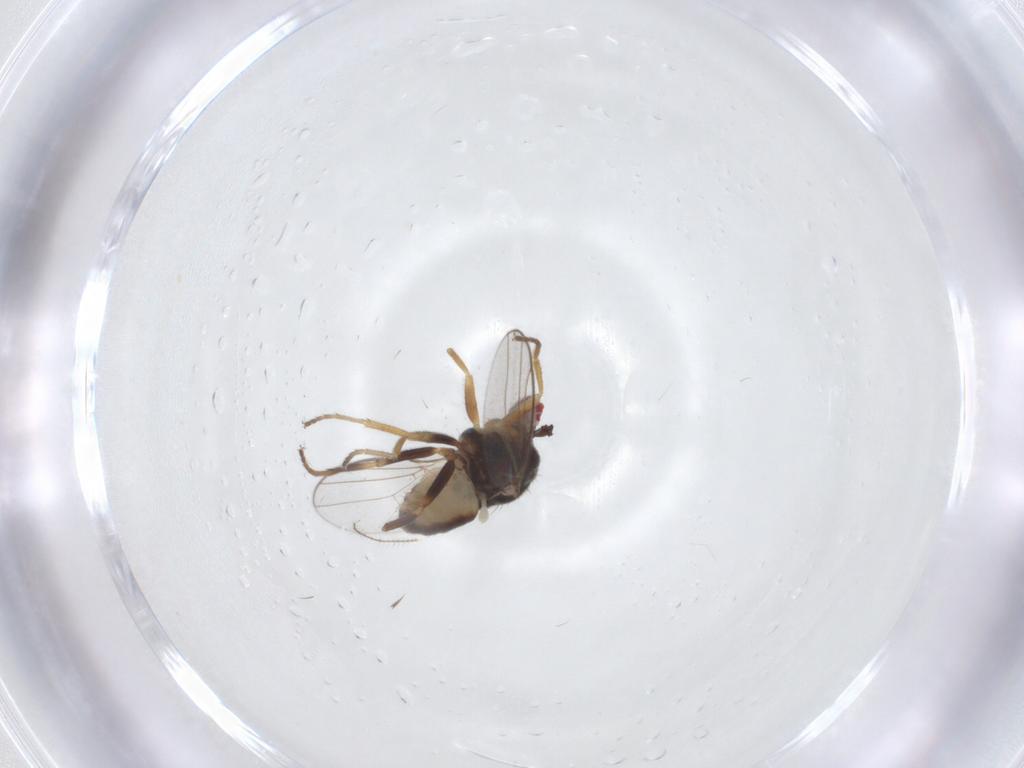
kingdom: Animalia
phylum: Arthropoda
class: Insecta
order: Diptera
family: Chloropidae
